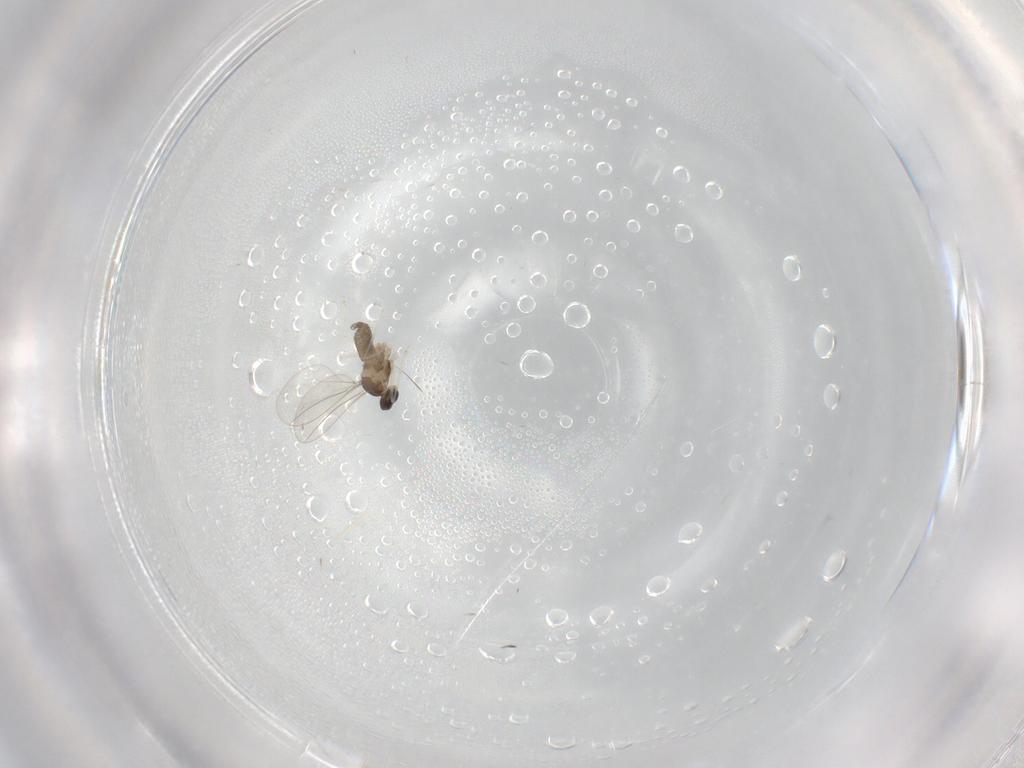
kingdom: Animalia
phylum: Arthropoda
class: Insecta
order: Diptera
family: Cecidomyiidae
